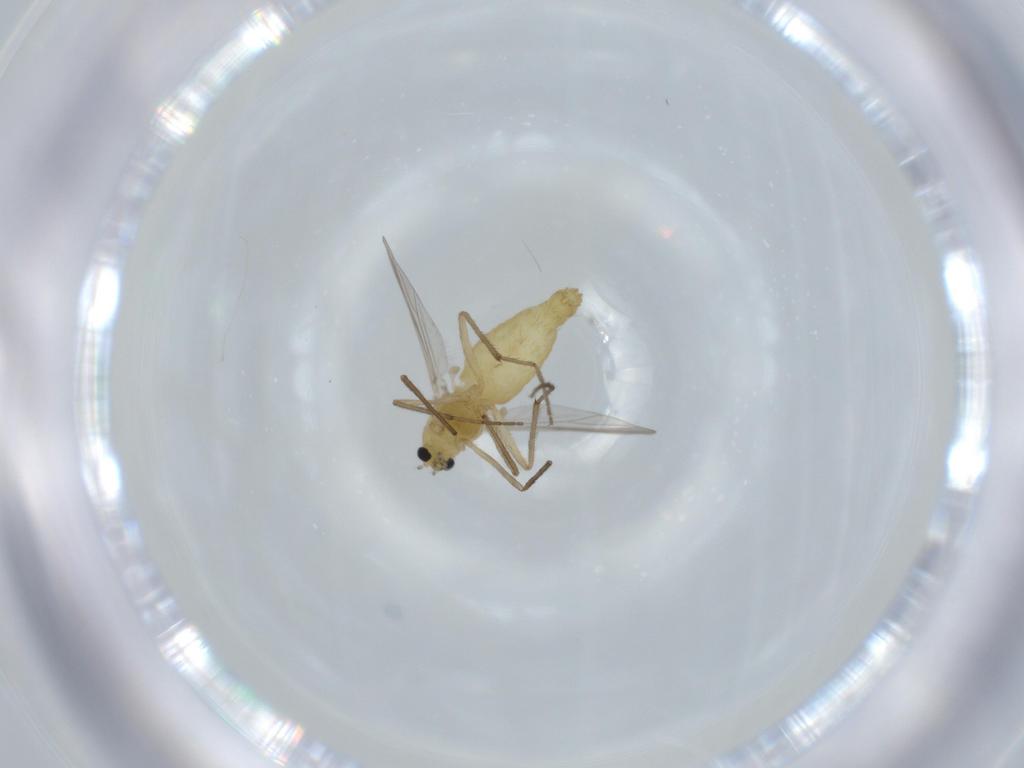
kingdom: Animalia
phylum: Arthropoda
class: Insecta
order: Diptera
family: Chironomidae
